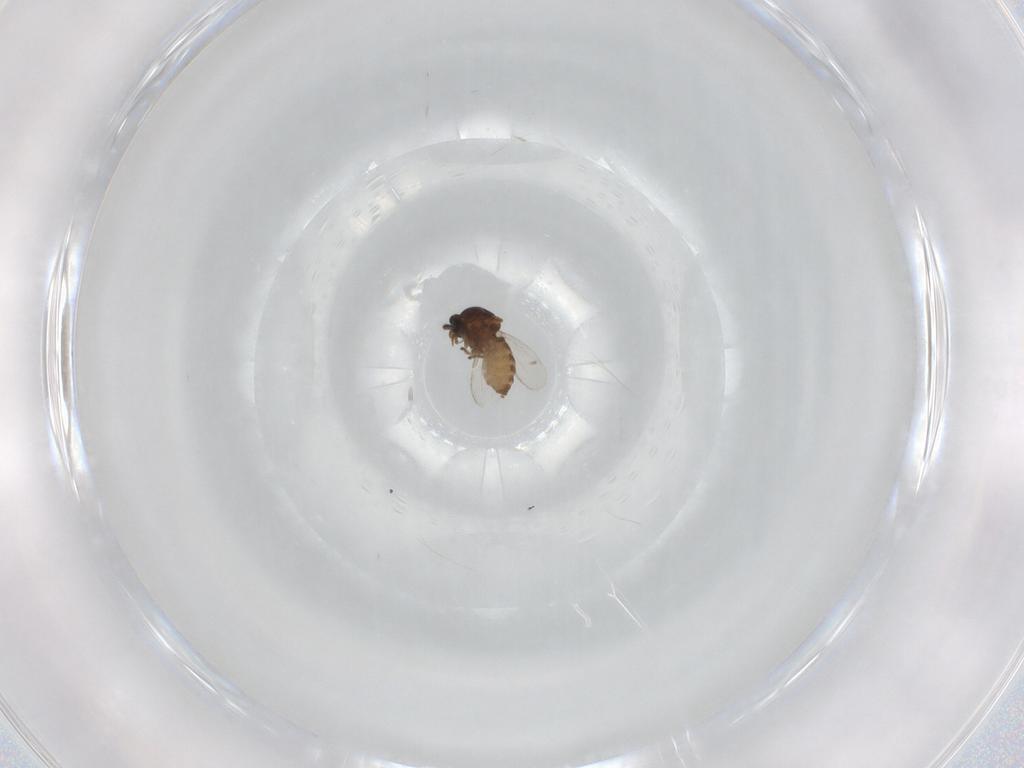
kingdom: Animalia
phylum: Arthropoda
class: Insecta
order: Diptera
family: Ceratopogonidae
